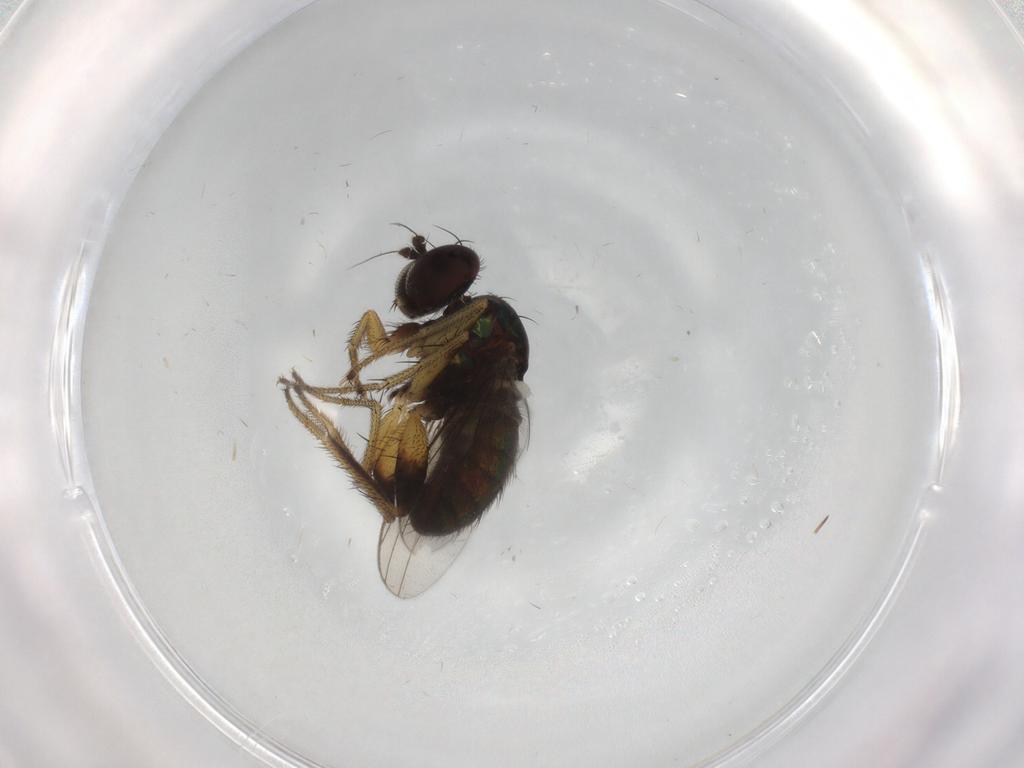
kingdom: Animalia
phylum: Arthropoda
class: Insecta
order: Diptera
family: Dolichopodidae
